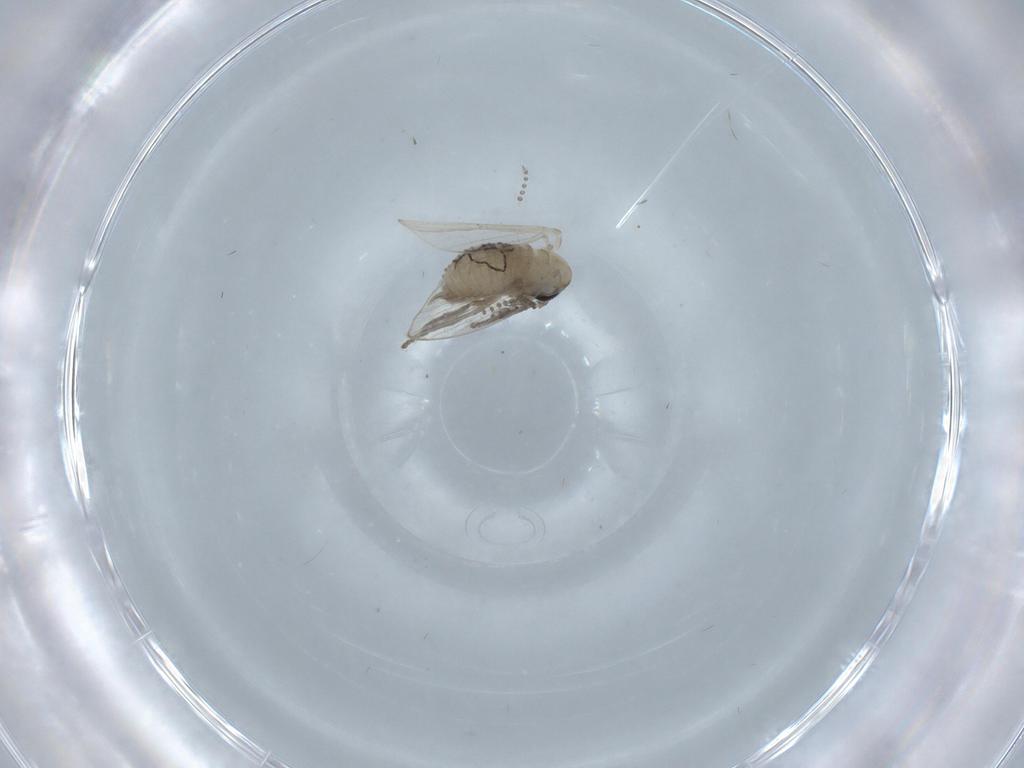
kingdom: Animalia
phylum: Arthropoda
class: Insecta
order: Diptera
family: Psychodidae
